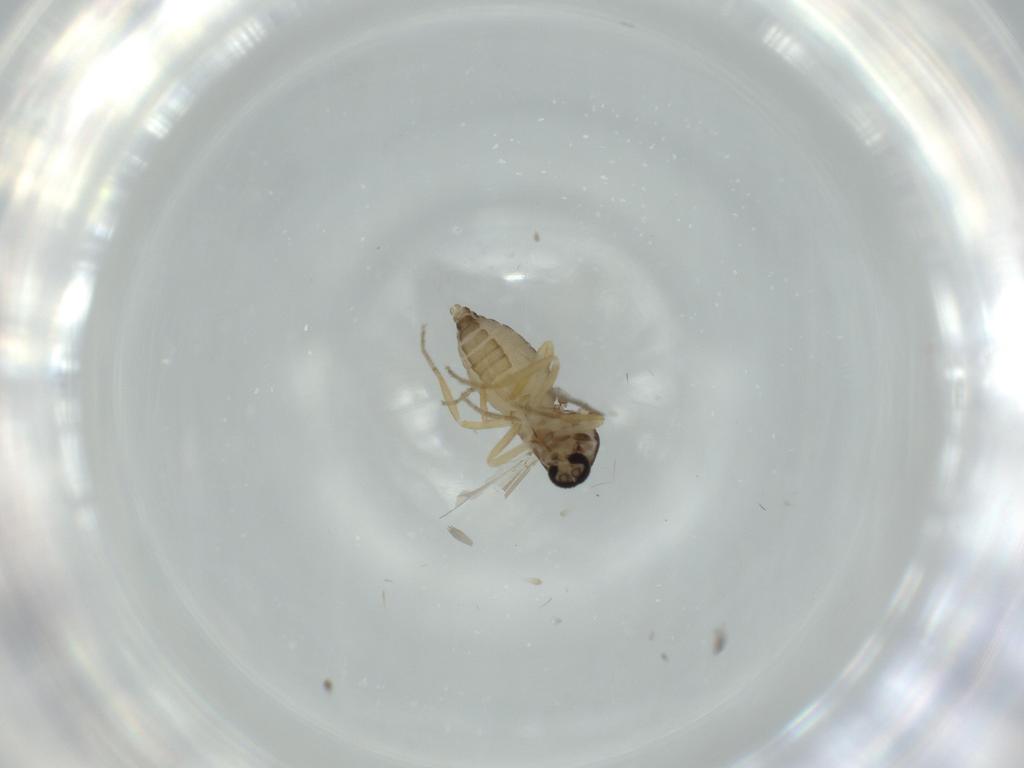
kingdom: Animalia
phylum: Arthropoda
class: Insecta
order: Diptera
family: Ceratopogonidae
